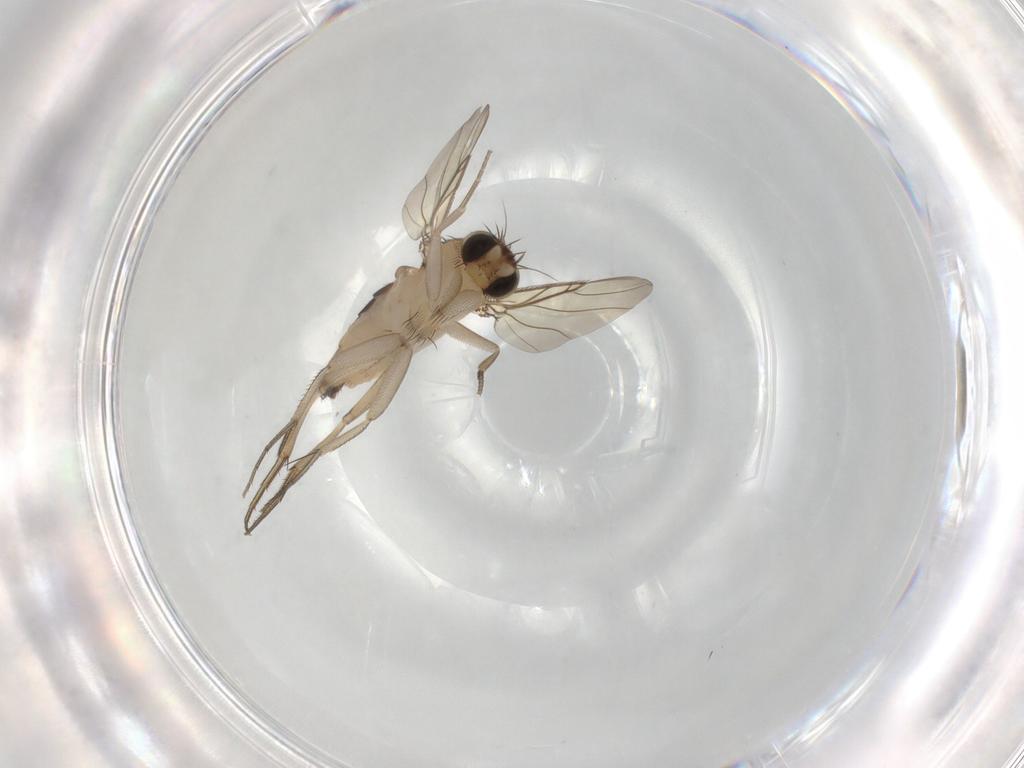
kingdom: Animalia
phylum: Arthropoda
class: Insecta
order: Diptera
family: Phoridae
